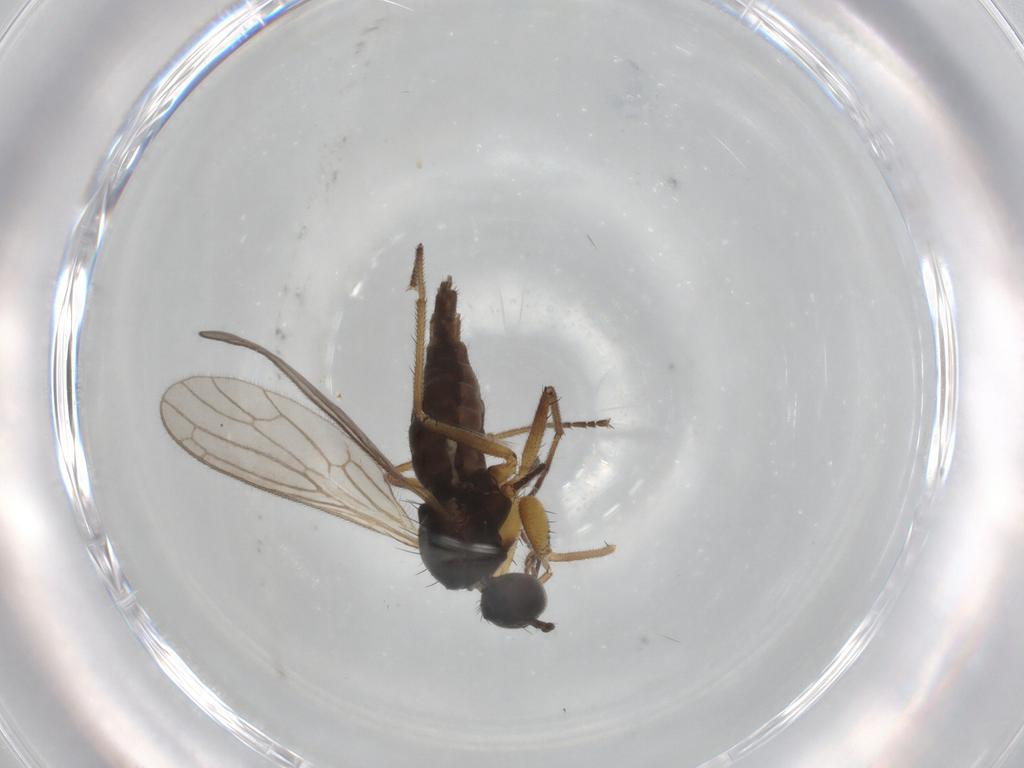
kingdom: Animalia
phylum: Arthropoda
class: Insecta
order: Diptera
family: Empididae
